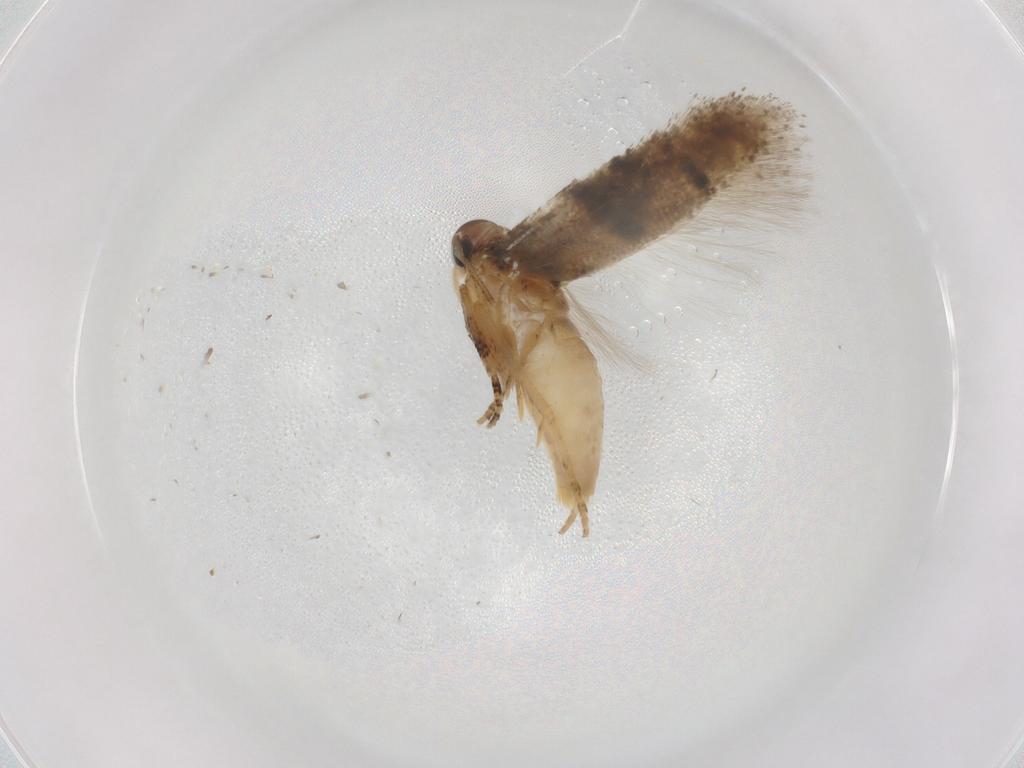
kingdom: Animalia
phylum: Arthropoda
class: Insecta
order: Lepidoptera
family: Gelechiidae
